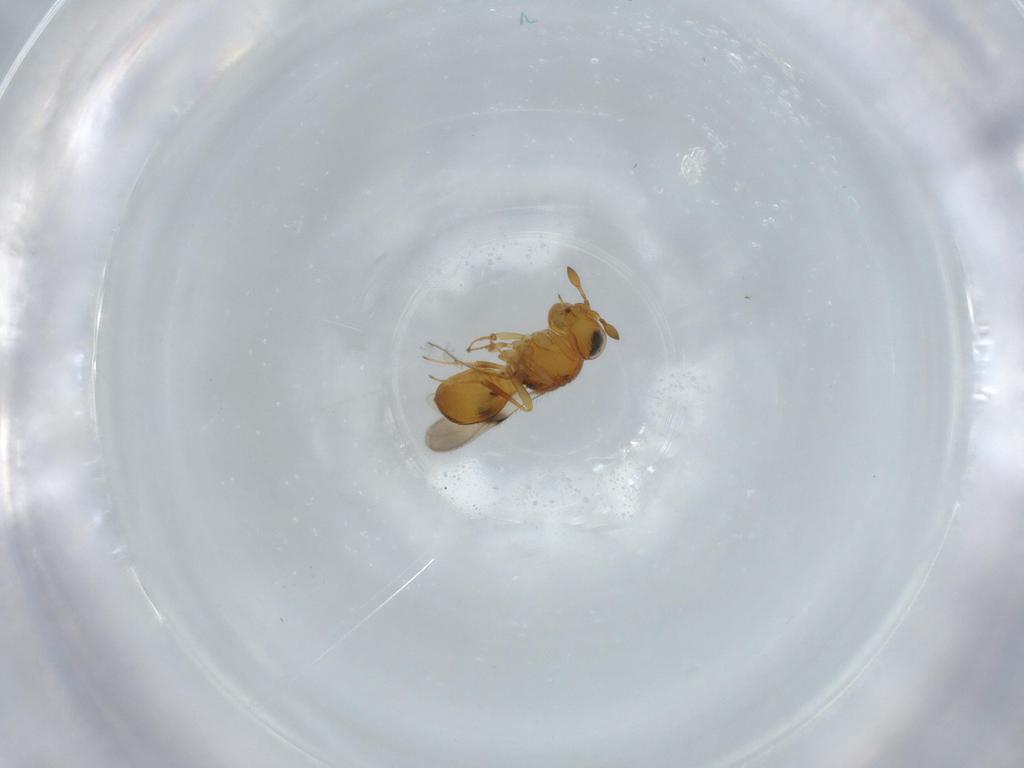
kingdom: Animalia
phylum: Arthropoda
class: Insecta
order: Hymenoptera
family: Scelionidae
